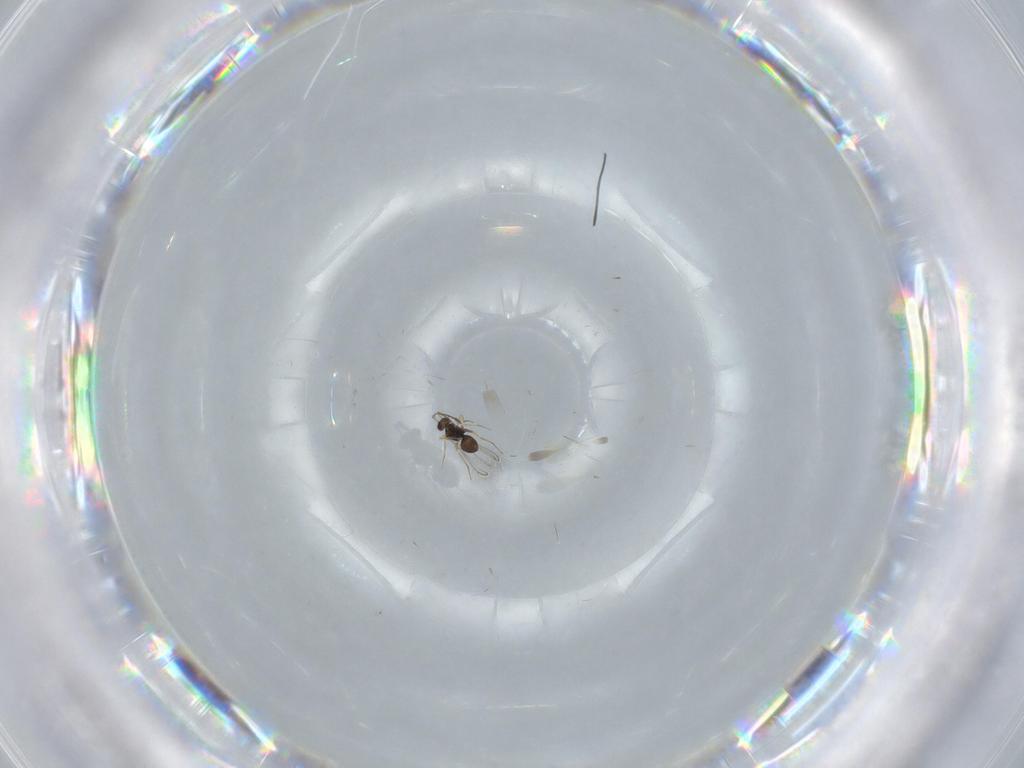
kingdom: Animalia
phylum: Arthropoda
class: Insecta
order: Hymenoptera
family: Mymaridae
